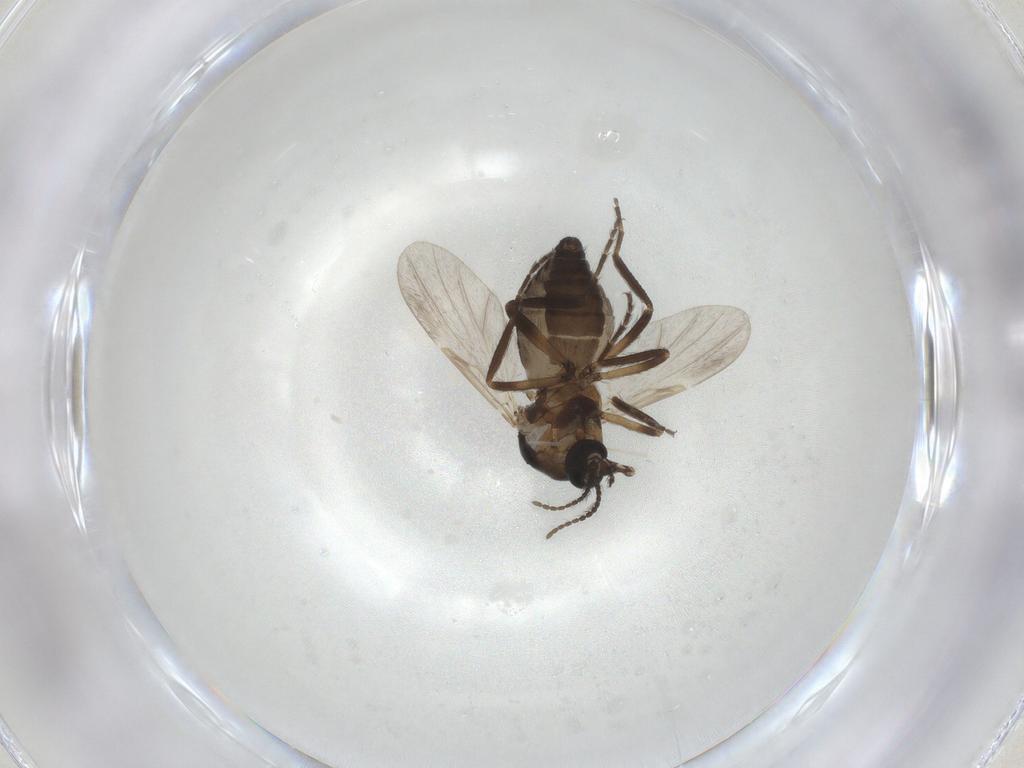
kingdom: Animalia
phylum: Arthropoda
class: Insecta
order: Diptera
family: Ceratopogonidae
